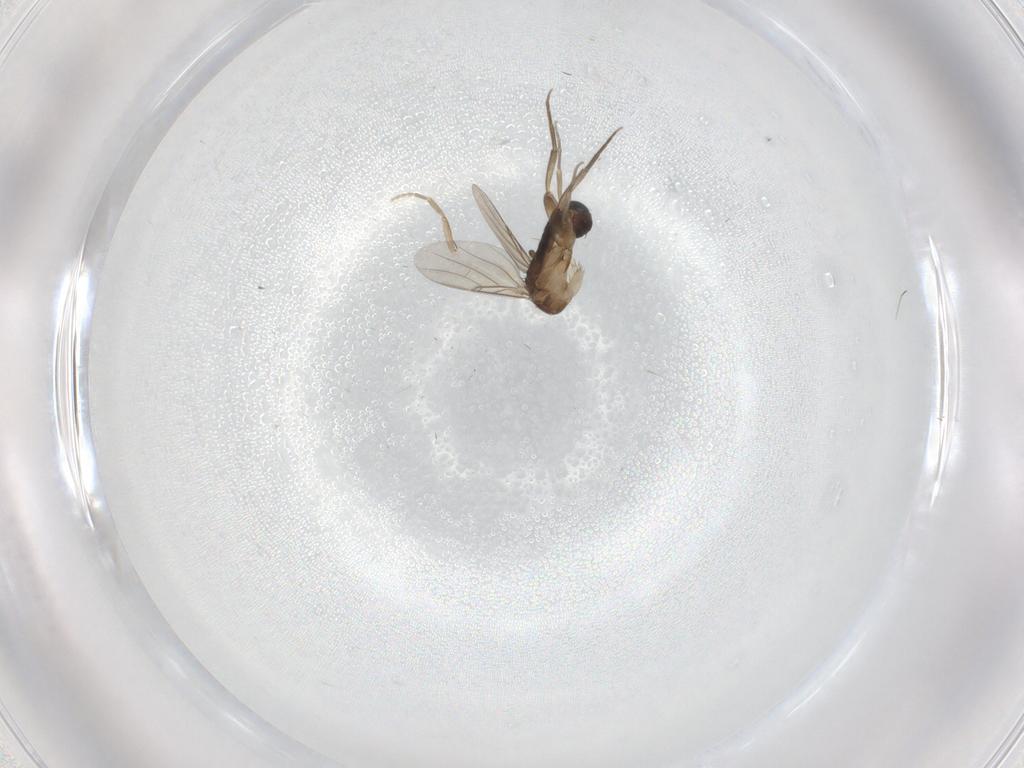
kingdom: Animalia
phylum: Arthropoda
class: Insecta
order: Diptera
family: Phoridae
